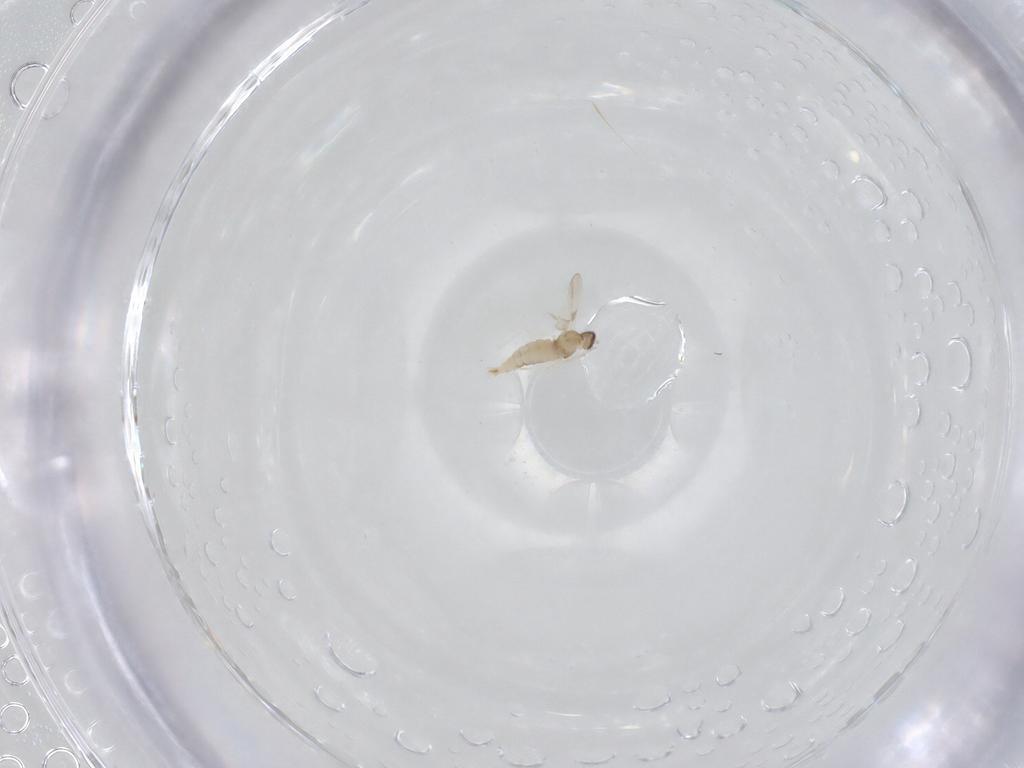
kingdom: Animalia
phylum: Arthropoda
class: Insecta
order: Diptera
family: Cecidomyiidae
